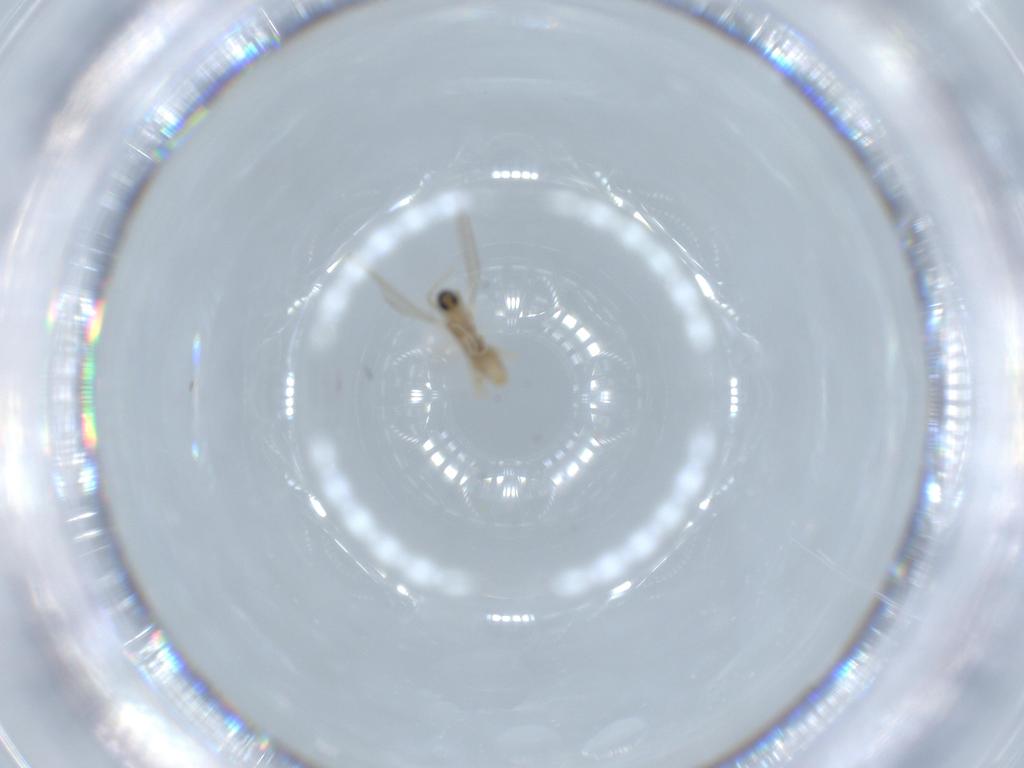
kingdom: Animalia
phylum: Arthropoda
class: Insecta
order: Diptera
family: Cecidomyiidae
